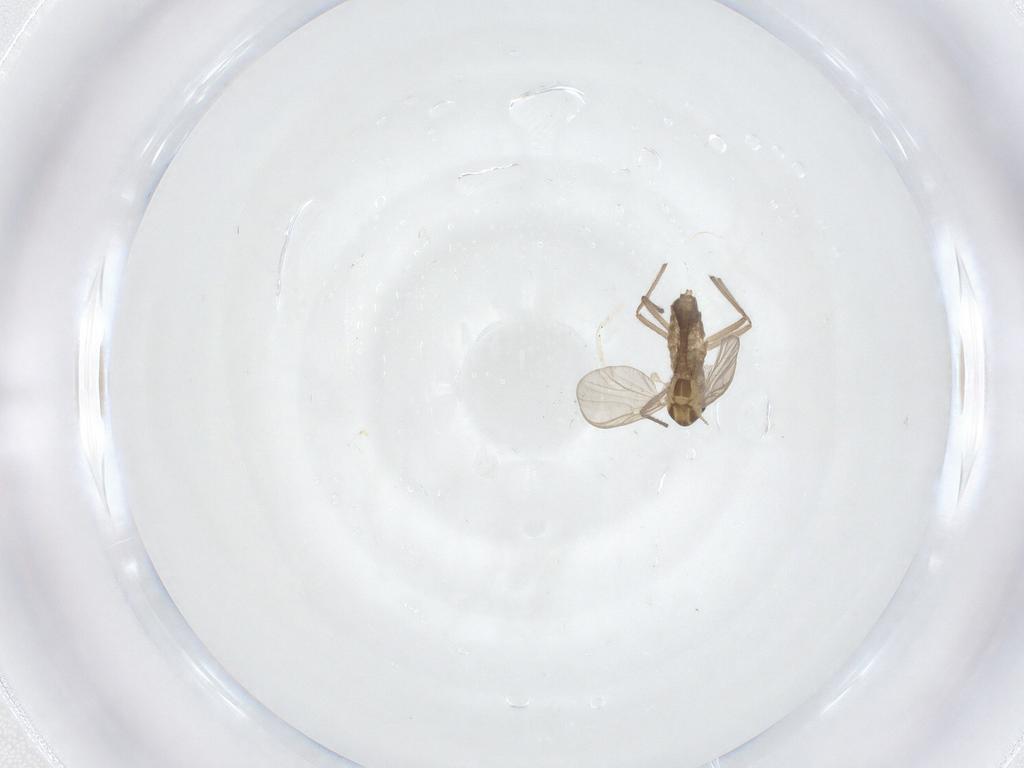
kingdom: Animalia
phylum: Arthropoda
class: Insecta
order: Diptera
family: Chironomidae
